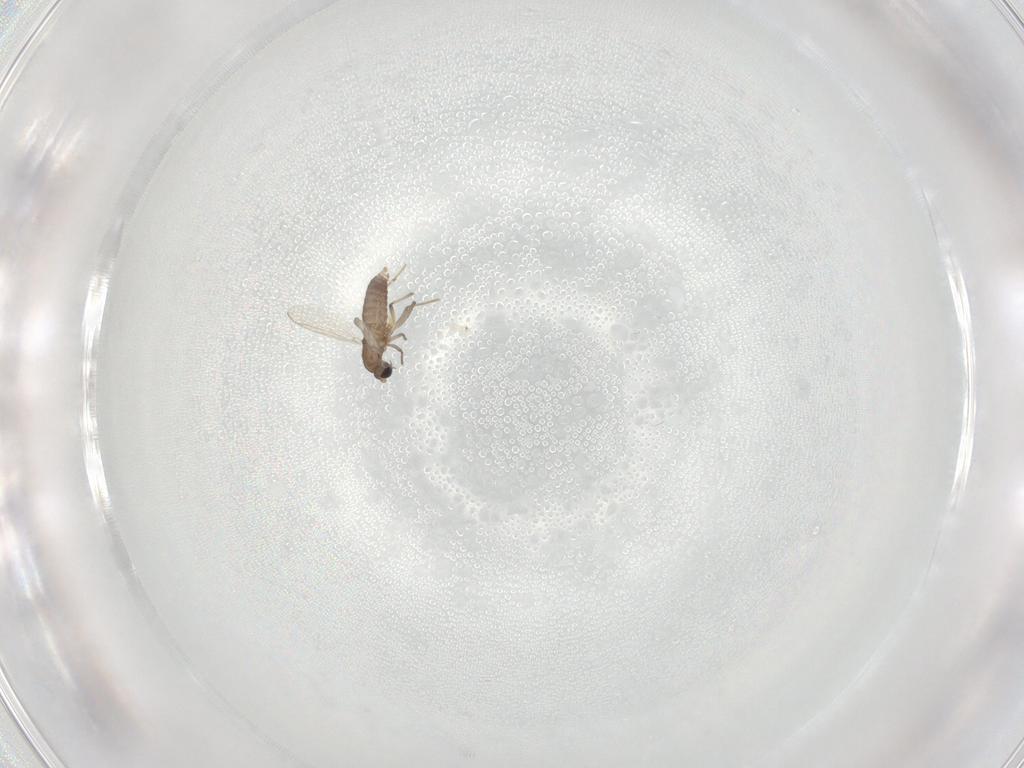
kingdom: Animalia
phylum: Arthropoda
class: Insecta
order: Diptera
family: Chironomidae
